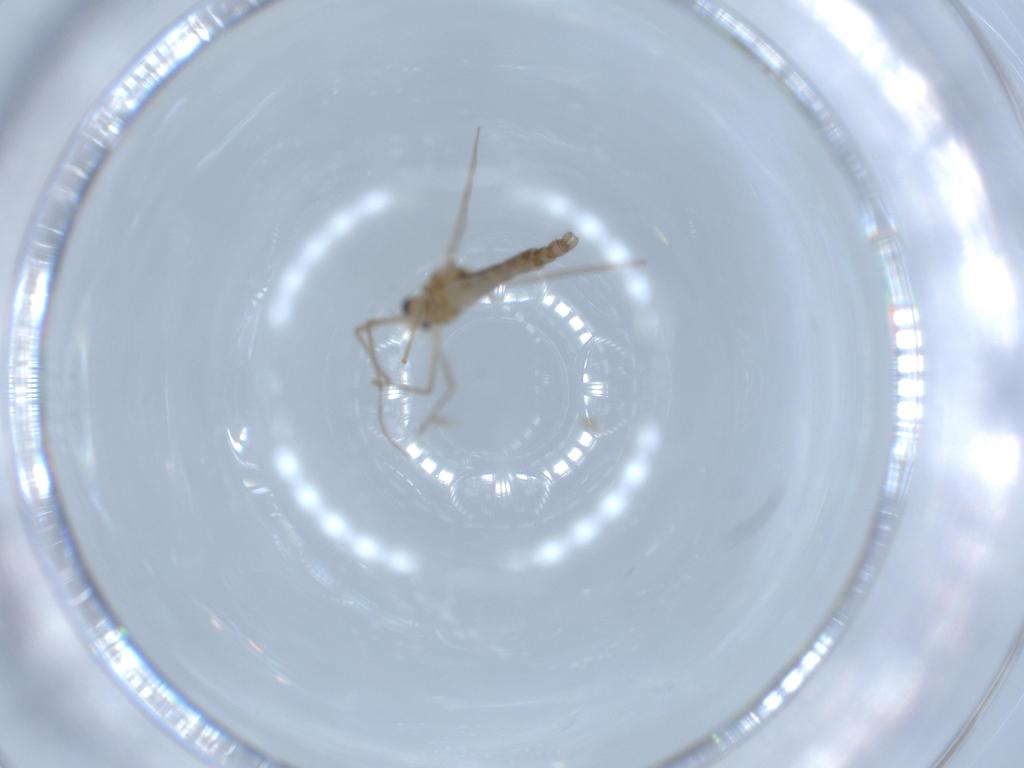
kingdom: Animalia
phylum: Arthropoda
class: Insecta
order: Diptera
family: Chironomidae
